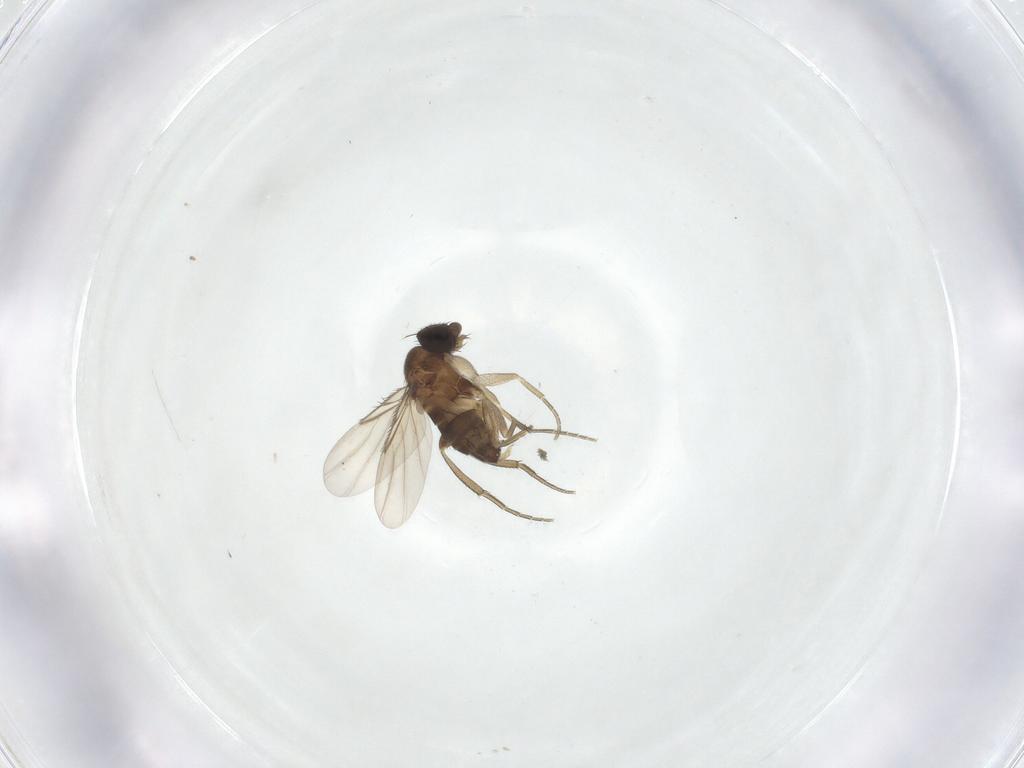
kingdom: Animalia
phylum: Arthropoda
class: Insecta
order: Diptera
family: Phoridae
